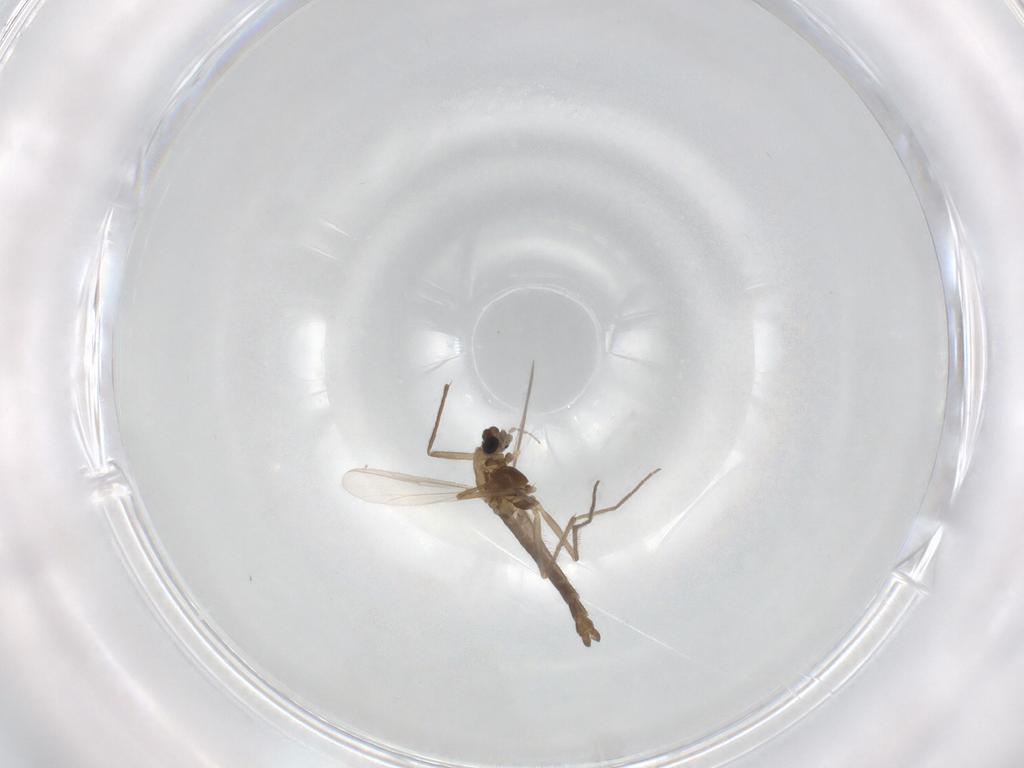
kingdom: Animalia
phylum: Arthropoda
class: Insecta
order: Diptera
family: Chironomidae
